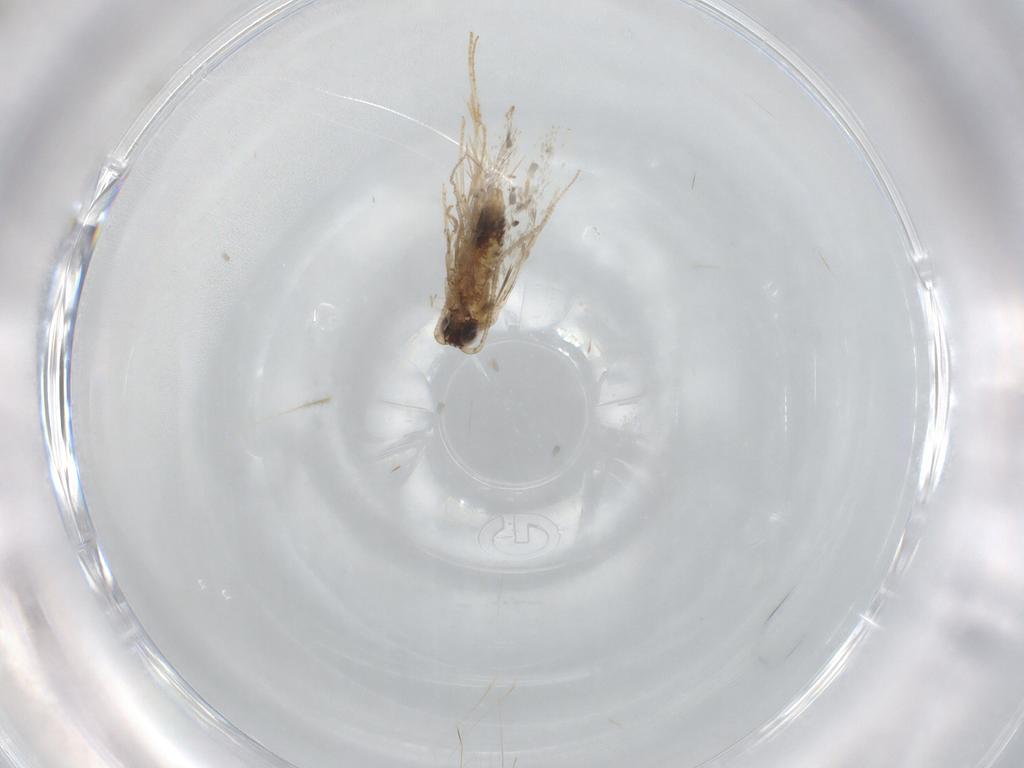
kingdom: Animalia
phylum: Arthropoda
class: Insecta
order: Lepidoptera
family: Tineidae
